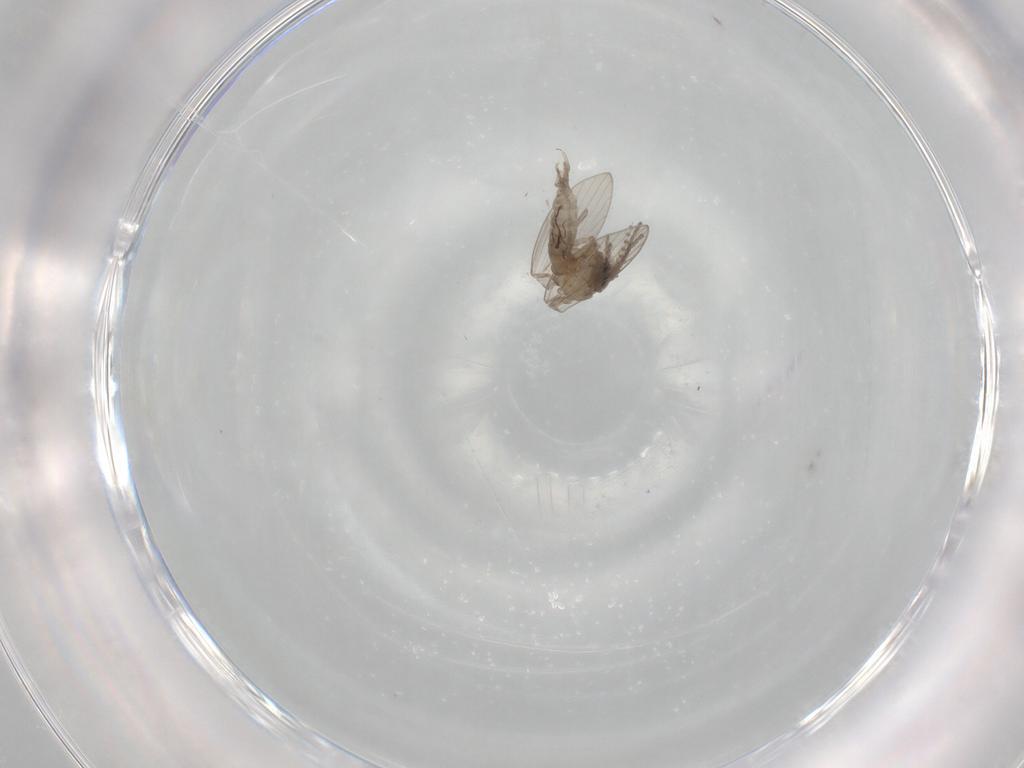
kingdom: Animalia
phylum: Arthropoda
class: Insecta
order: Diptera
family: Psychodidae
